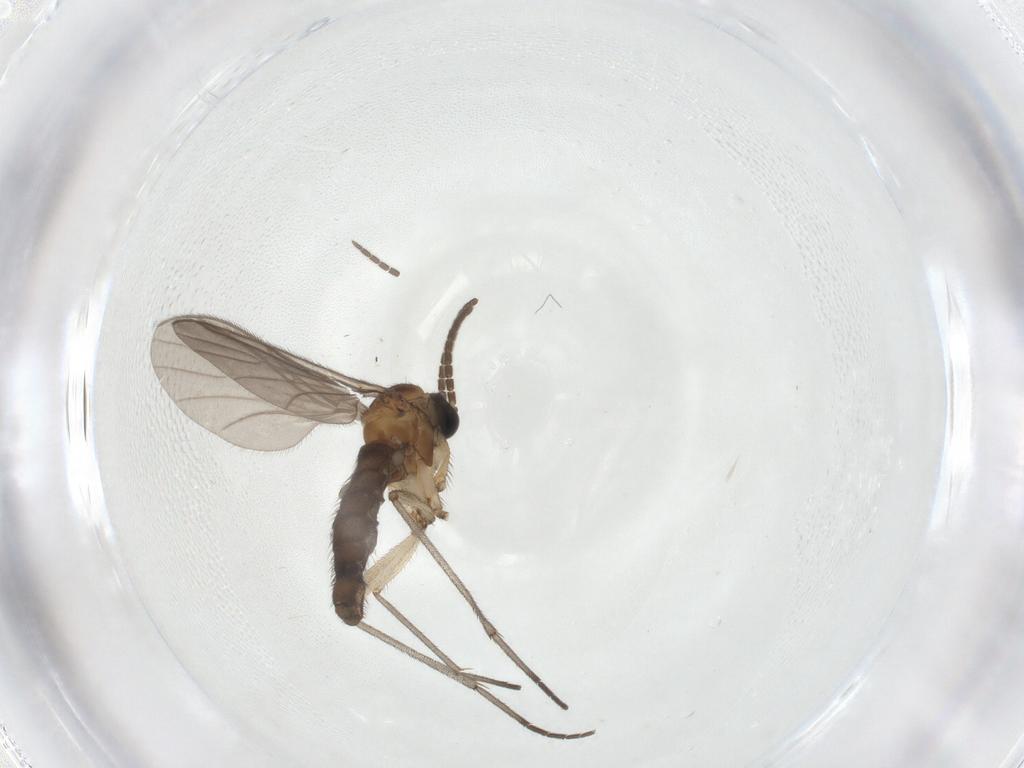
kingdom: Animalia
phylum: Arthropoda
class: Insecta
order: Diptera
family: Sciaridae
